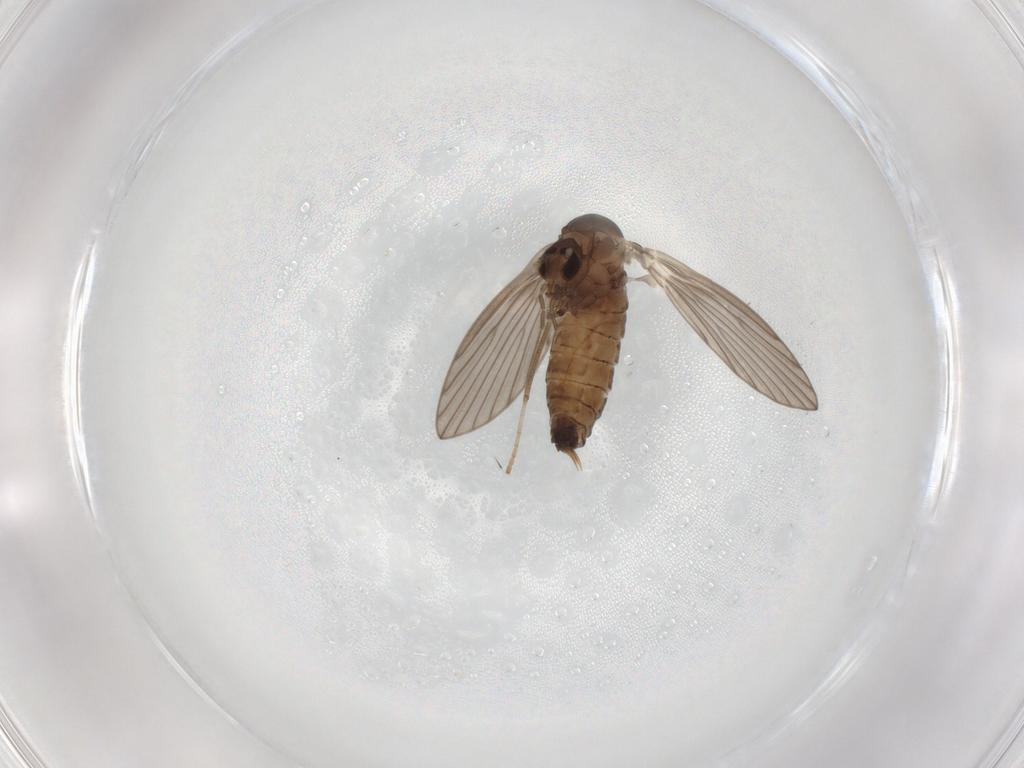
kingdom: Animalia
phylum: Arthropoda
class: Insecta
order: Diptera
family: Psychodidae
